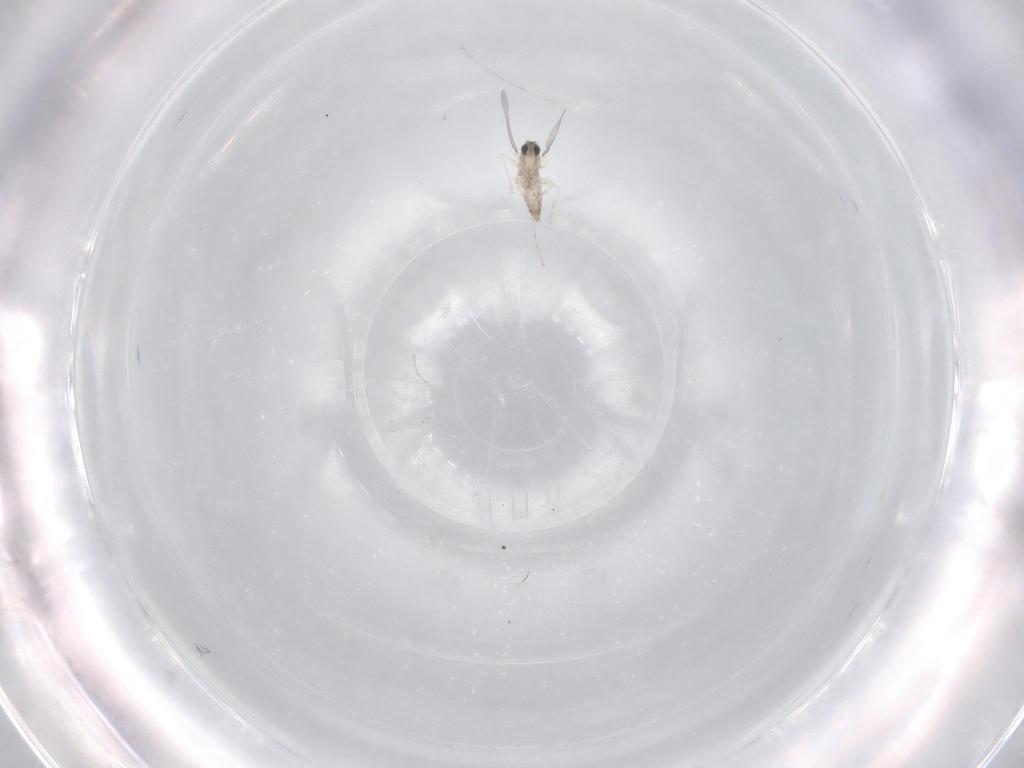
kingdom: Animalia
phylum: Arthropoda
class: Insecta
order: Diptera
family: Cecidomyiidae
